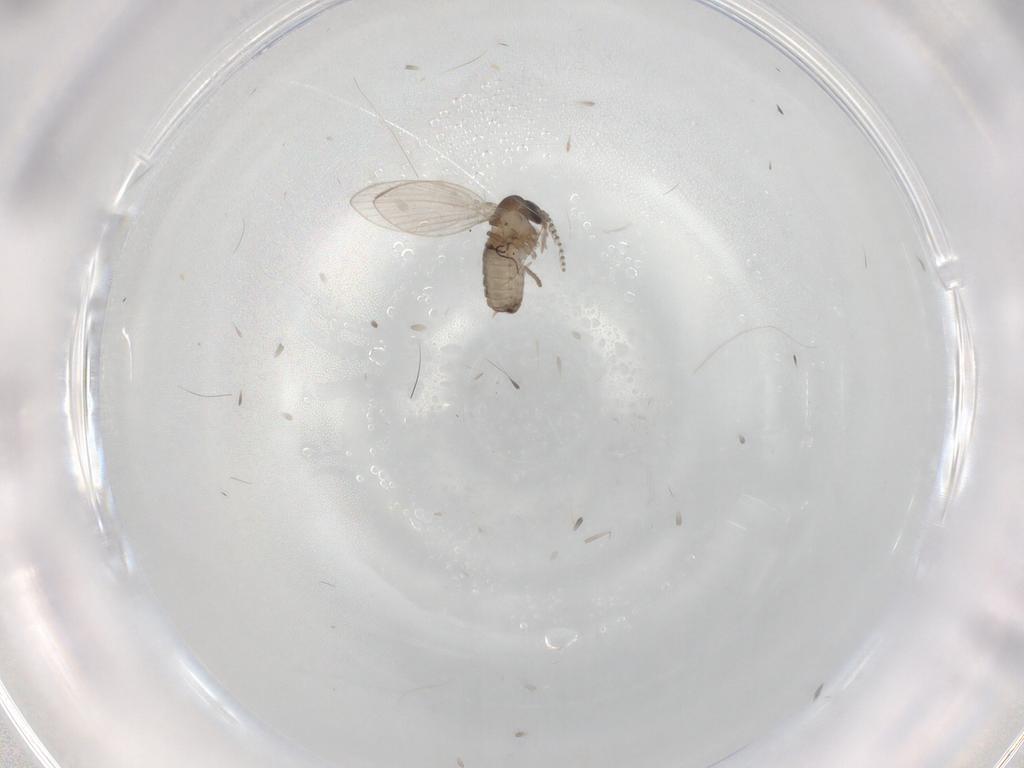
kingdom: Animalia
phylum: Arthropoda
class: Insecta
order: Diptera
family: Psychodidae
